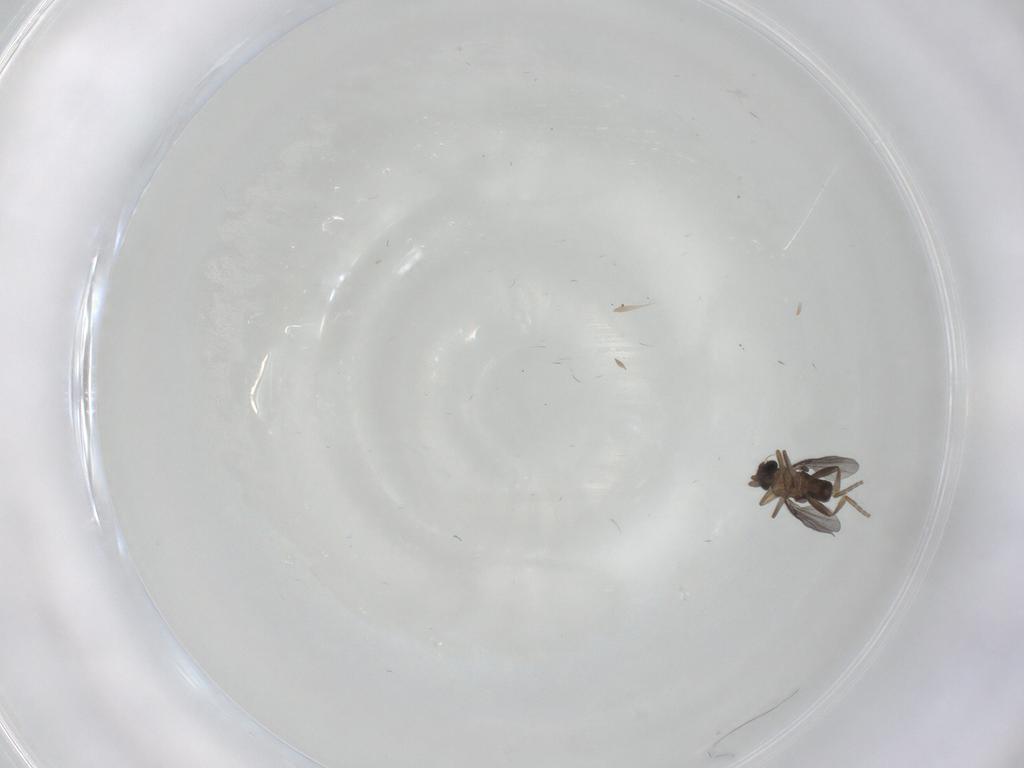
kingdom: Animalia
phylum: Arthropoda
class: Insecta
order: Diptera
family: Phoridae
